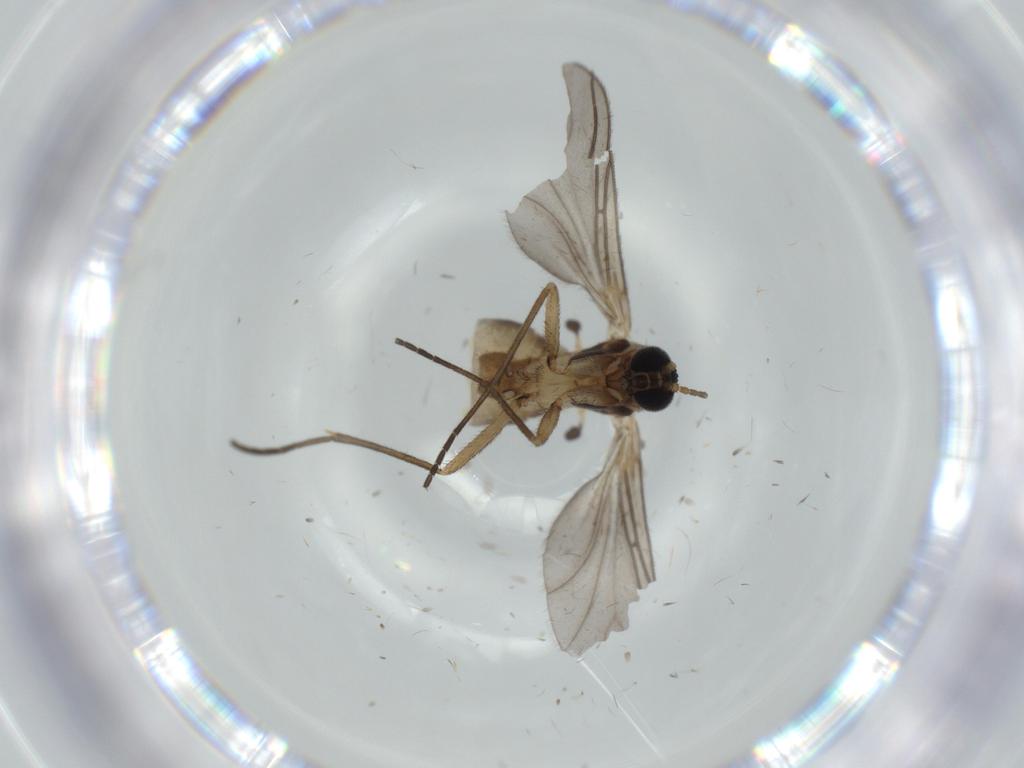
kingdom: Animalia
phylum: Arthropoda
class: Insecta
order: Diptera
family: Sciaridae
